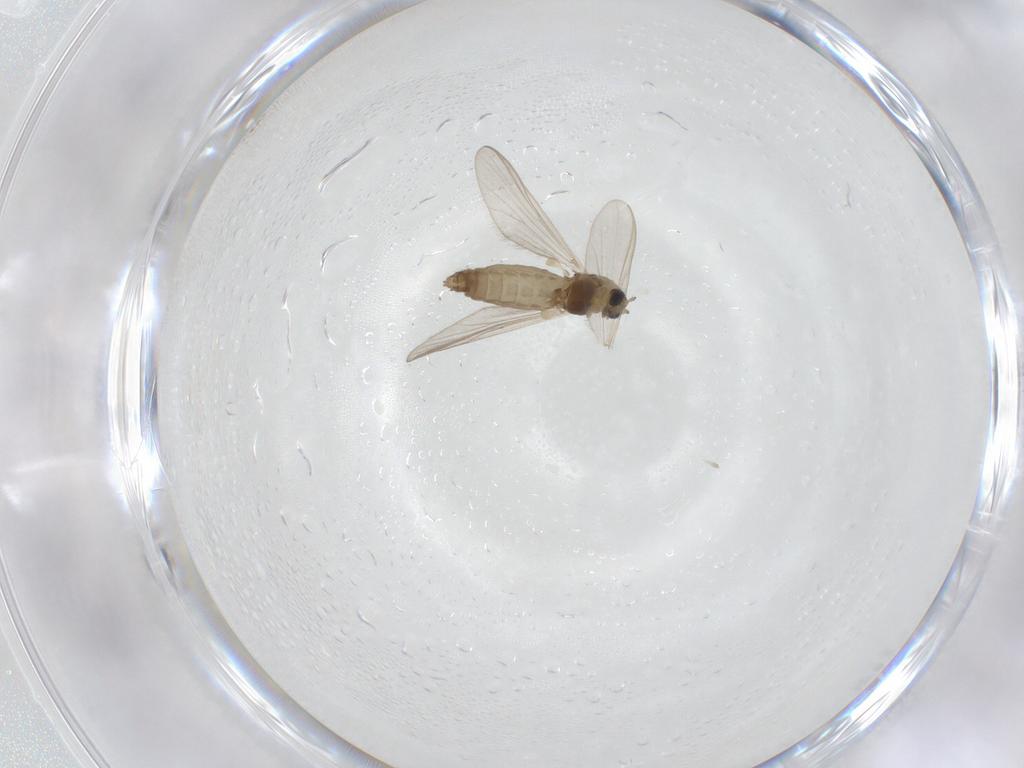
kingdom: Animalia
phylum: Arthropoda
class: Insecta
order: Diptera
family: Chironomidae
